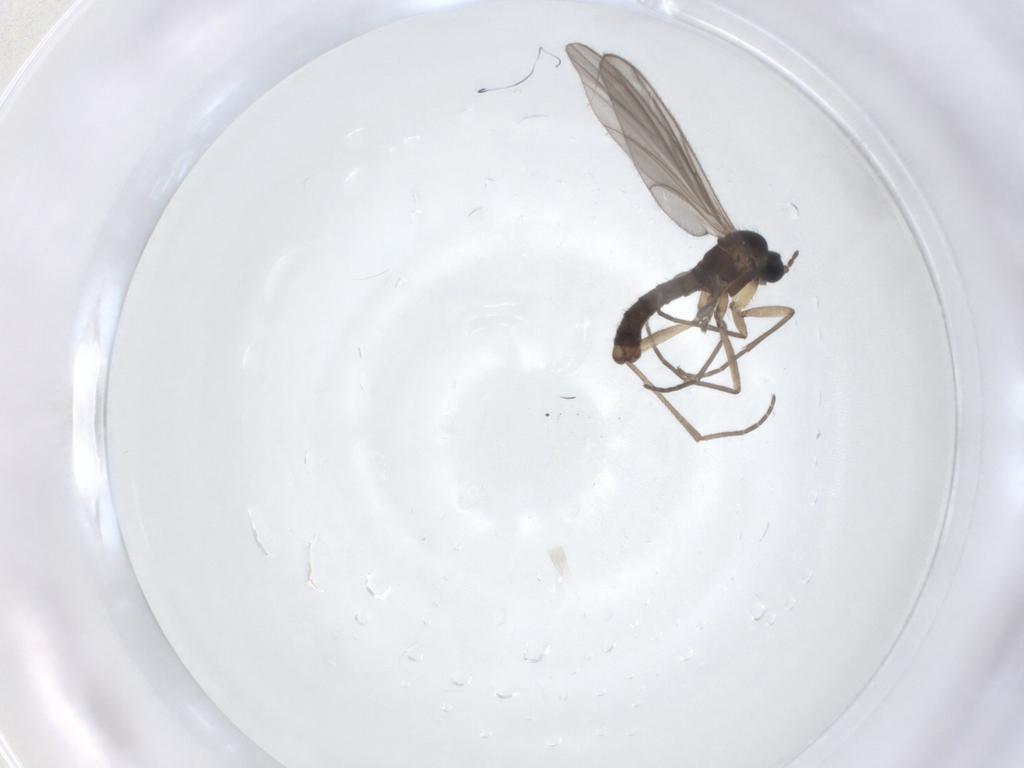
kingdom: Animalia
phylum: Arthropoda
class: Insecta
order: Diptera
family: Sciaridae
